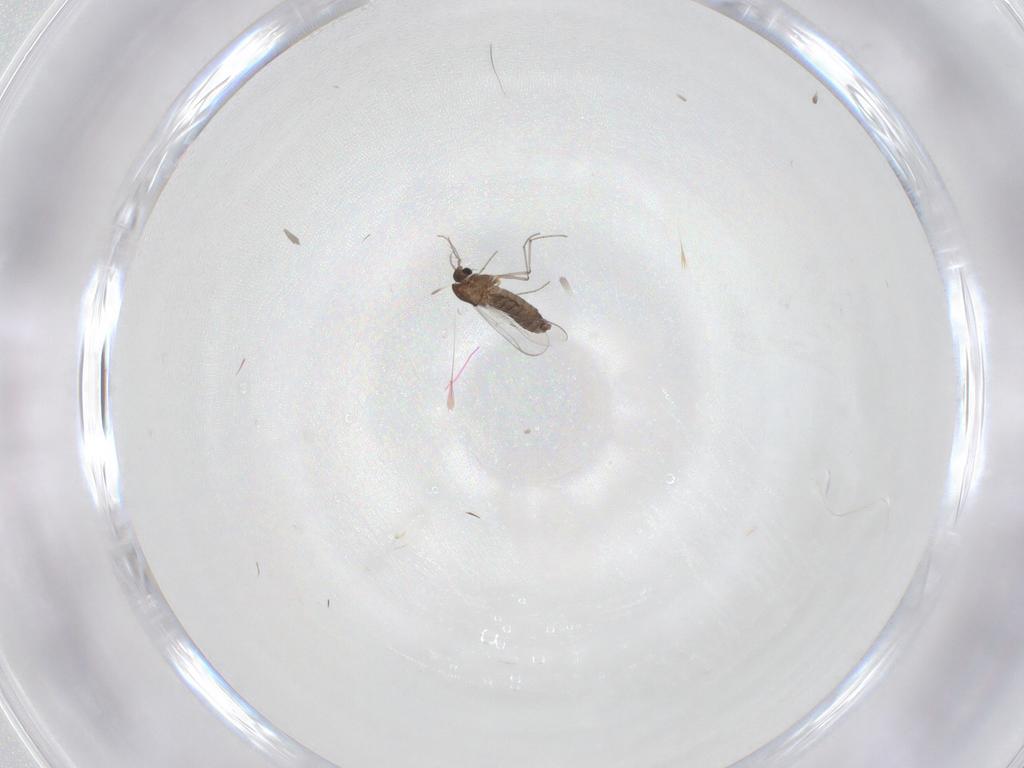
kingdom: Animalia
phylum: Arthropoda
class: Insecta
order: Diptera
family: Chironomidae
